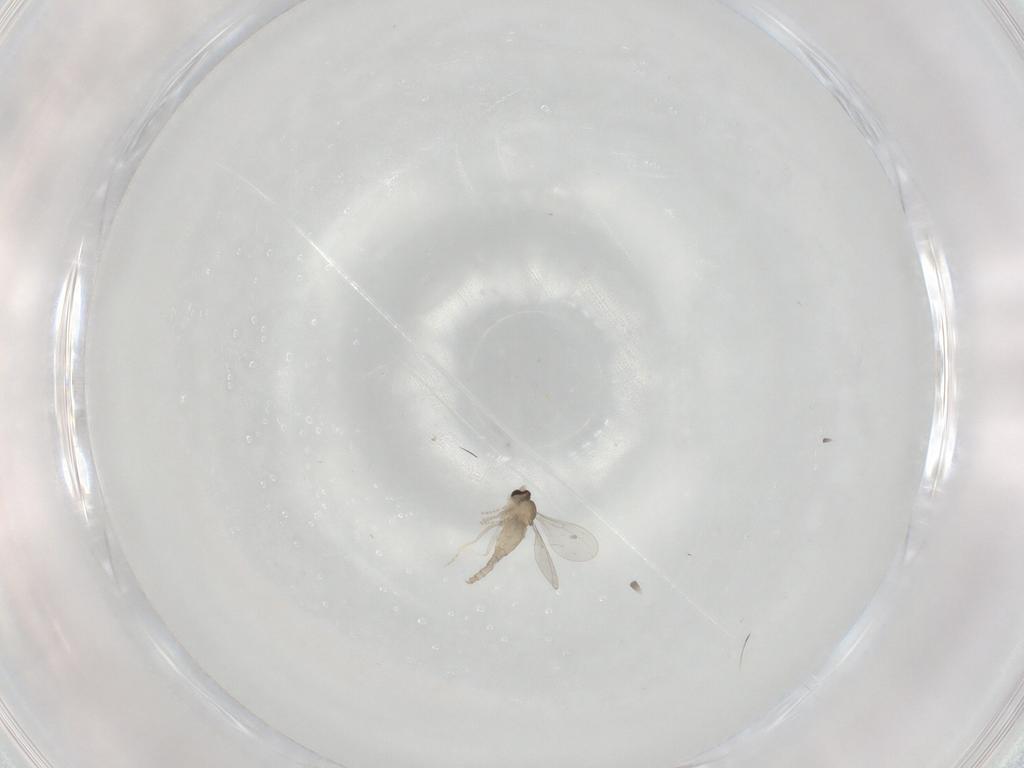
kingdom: Animalia
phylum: Arthropoda
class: Insecta
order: Diptera
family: Cecidomyiidae
